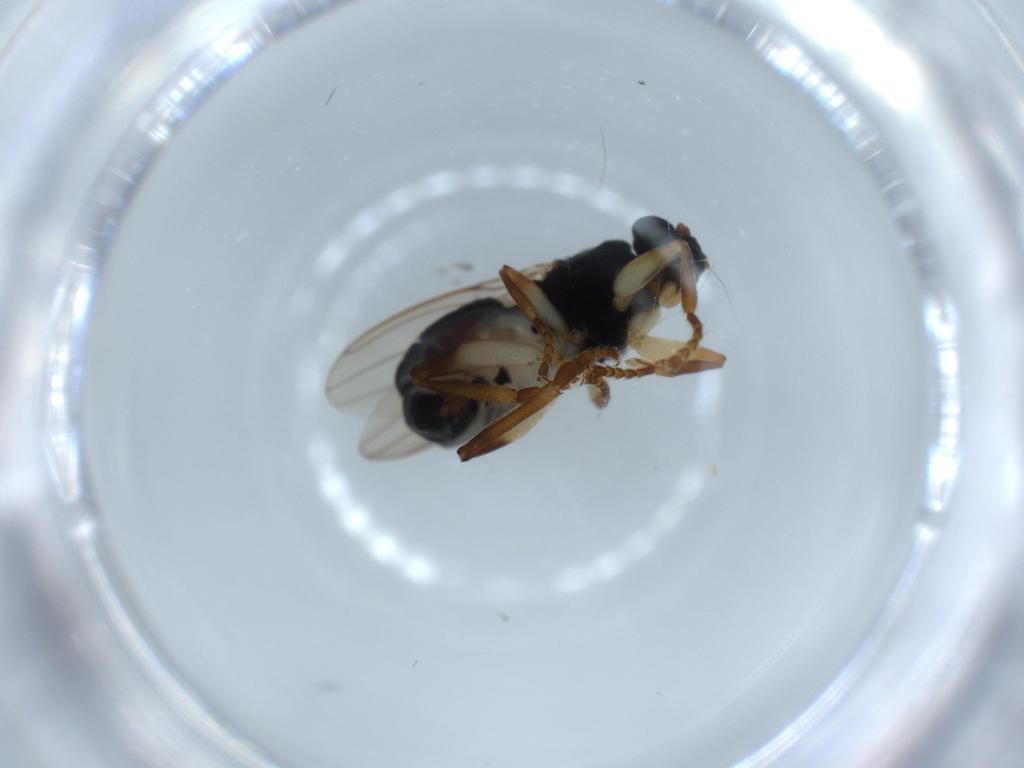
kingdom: Animalia
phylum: Arthropoda
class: Insecta
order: Diptera
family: Sphaeroceridae
